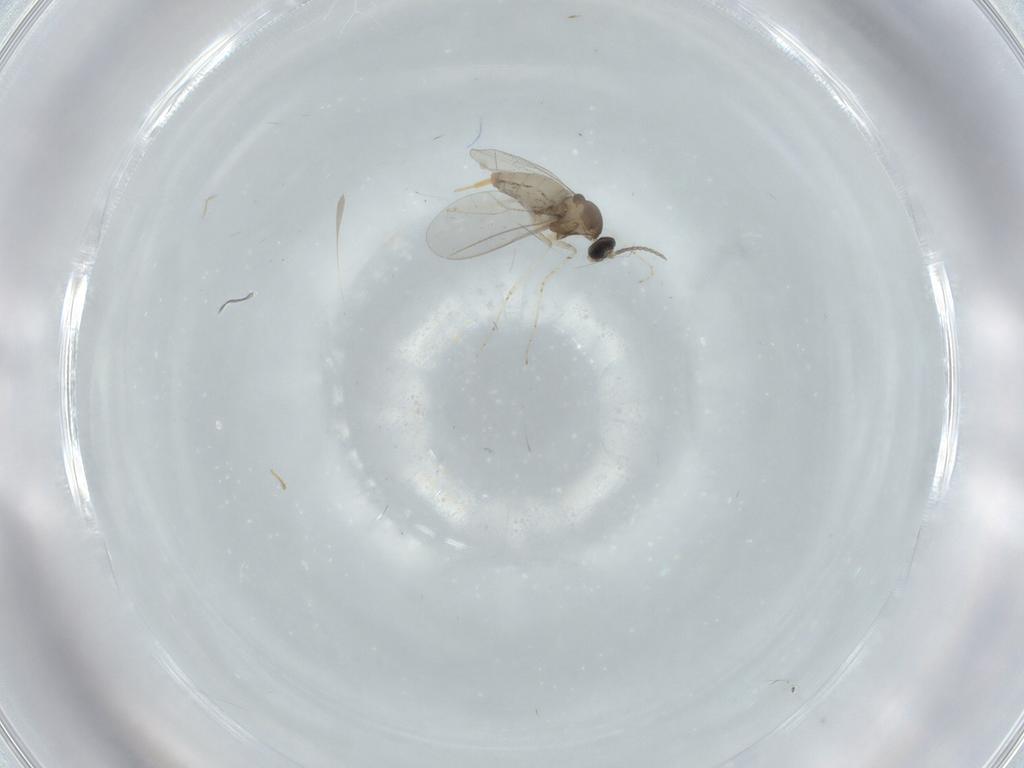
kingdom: Animalia
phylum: Arthropoda
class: Insecta
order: Diptera
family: Cecidomyiidae
